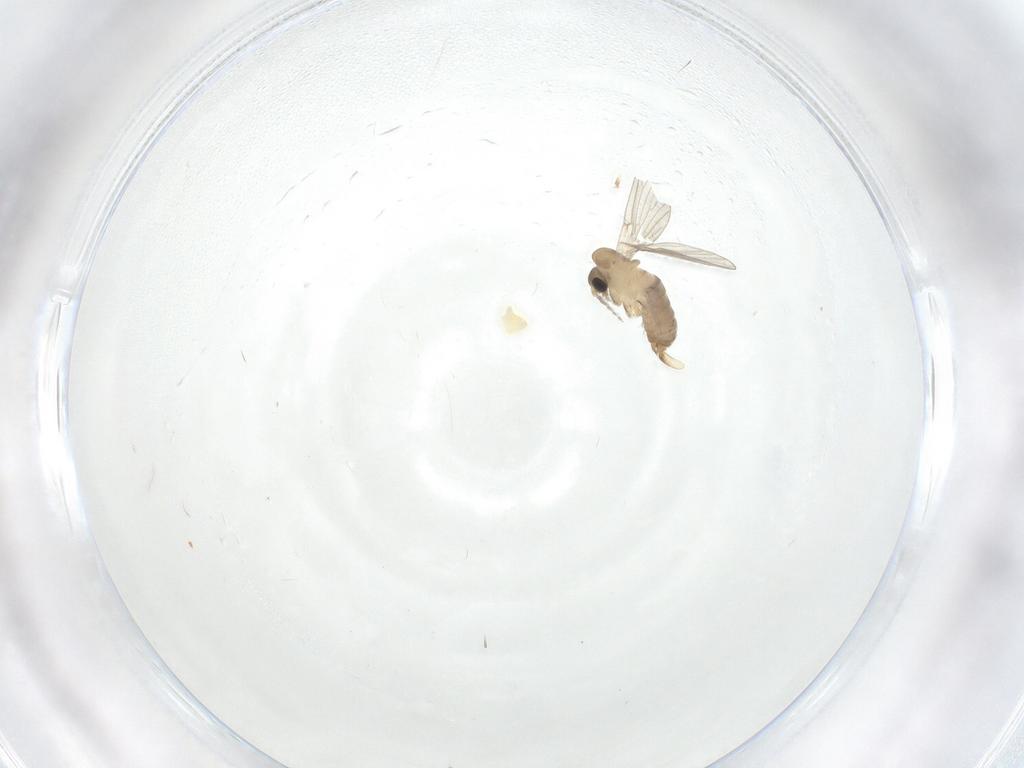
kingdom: Animalia
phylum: Arthropoda
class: Insecta
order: Diptera
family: Psychodidae
